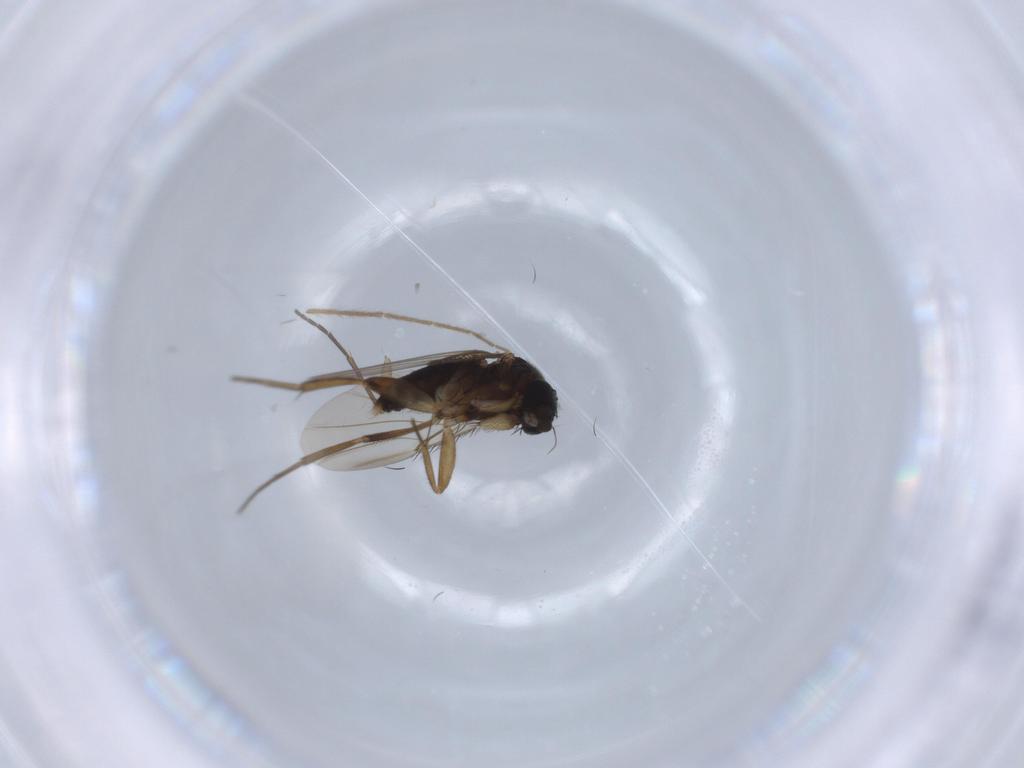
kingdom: Animalia
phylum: Arthropoda
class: Insecta
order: Diptera
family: Phoridae
